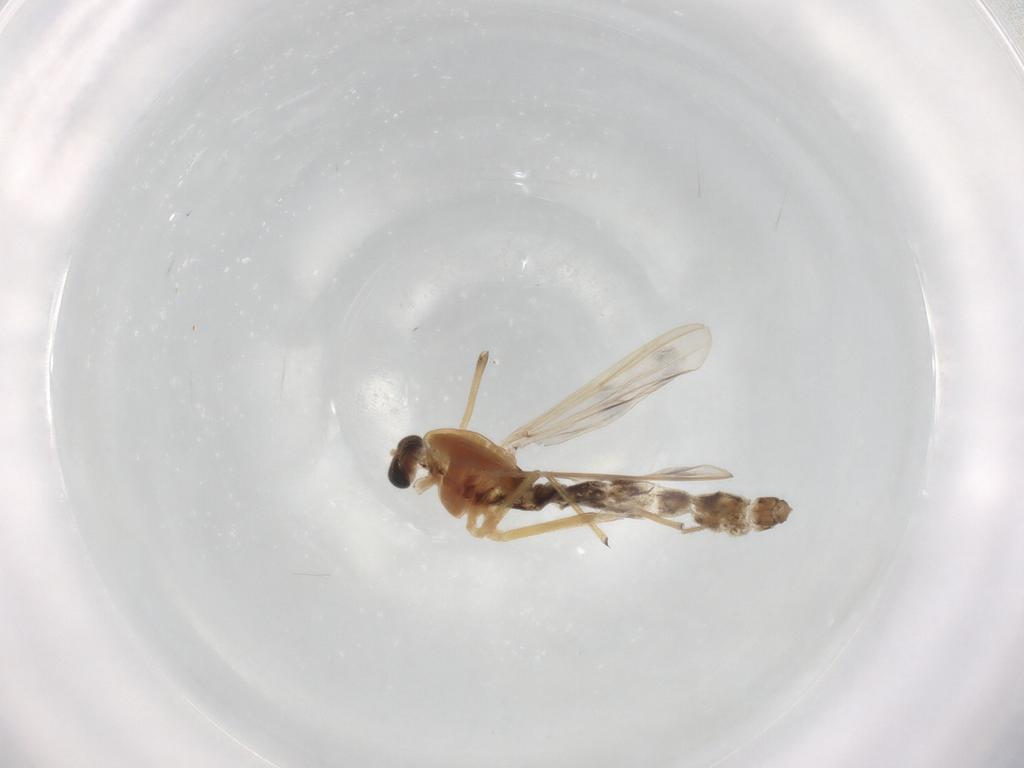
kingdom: Animalia
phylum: Arthropoda
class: Insecta
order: Diptera
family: Chironomidae
